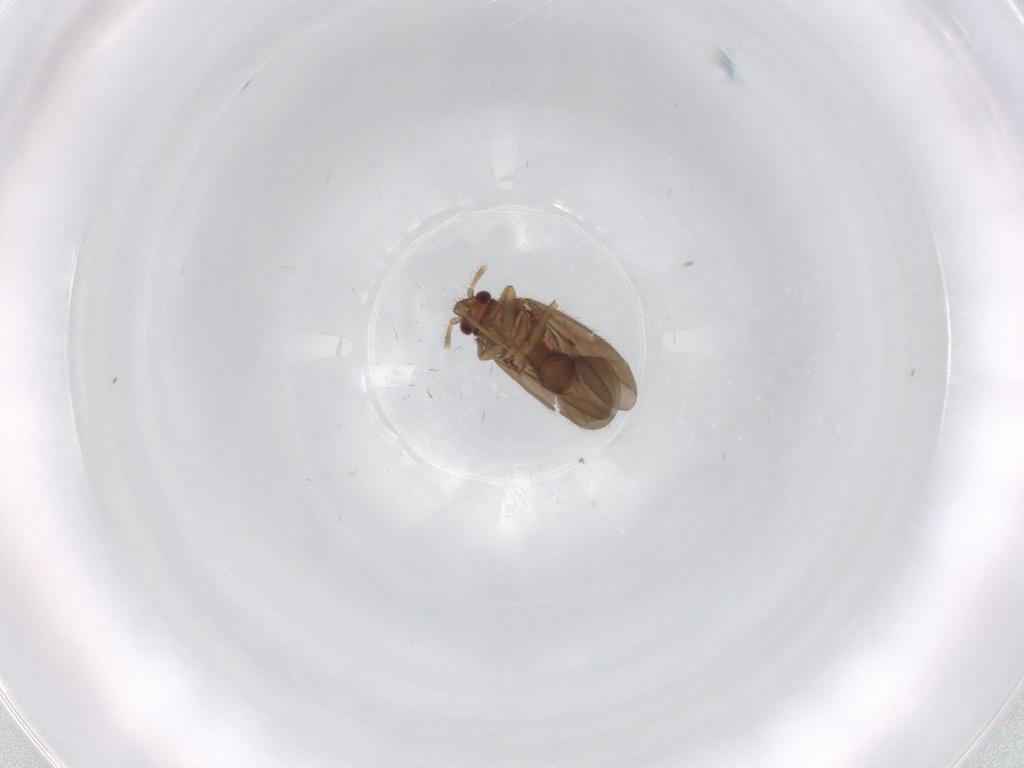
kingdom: Animalia
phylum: Arthropoda
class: Insecta
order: Hemiptera
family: Ceratocombidae
